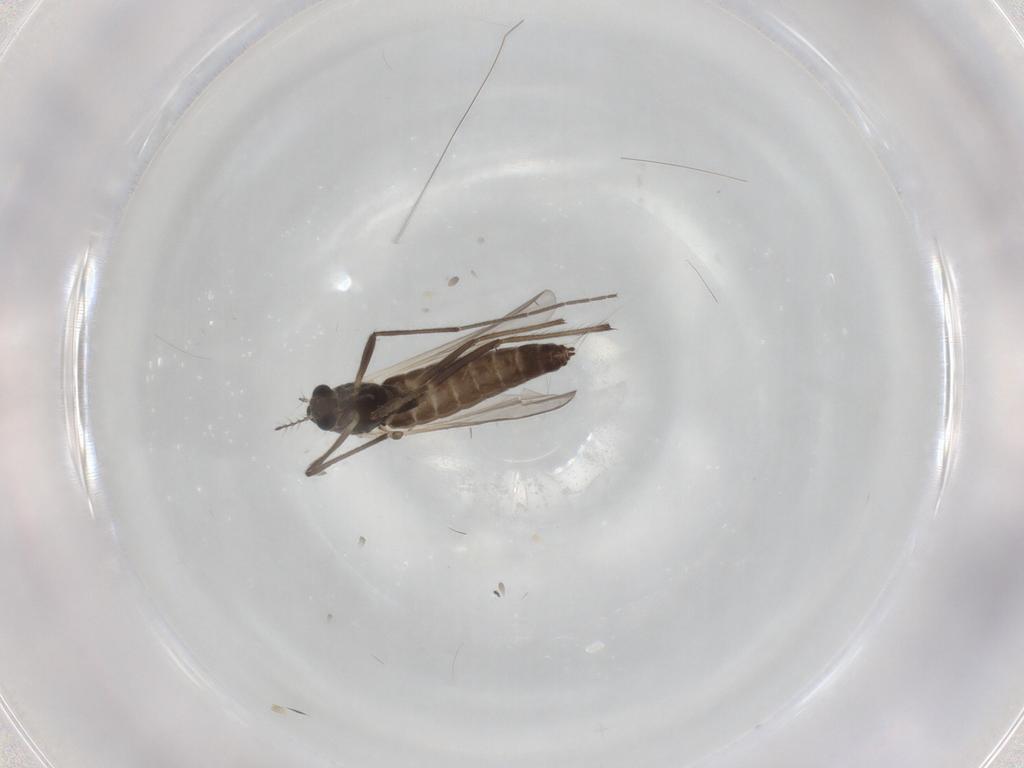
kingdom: Animalia
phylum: Arthropoda
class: Insecta
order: Diptera
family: Chironomidae
